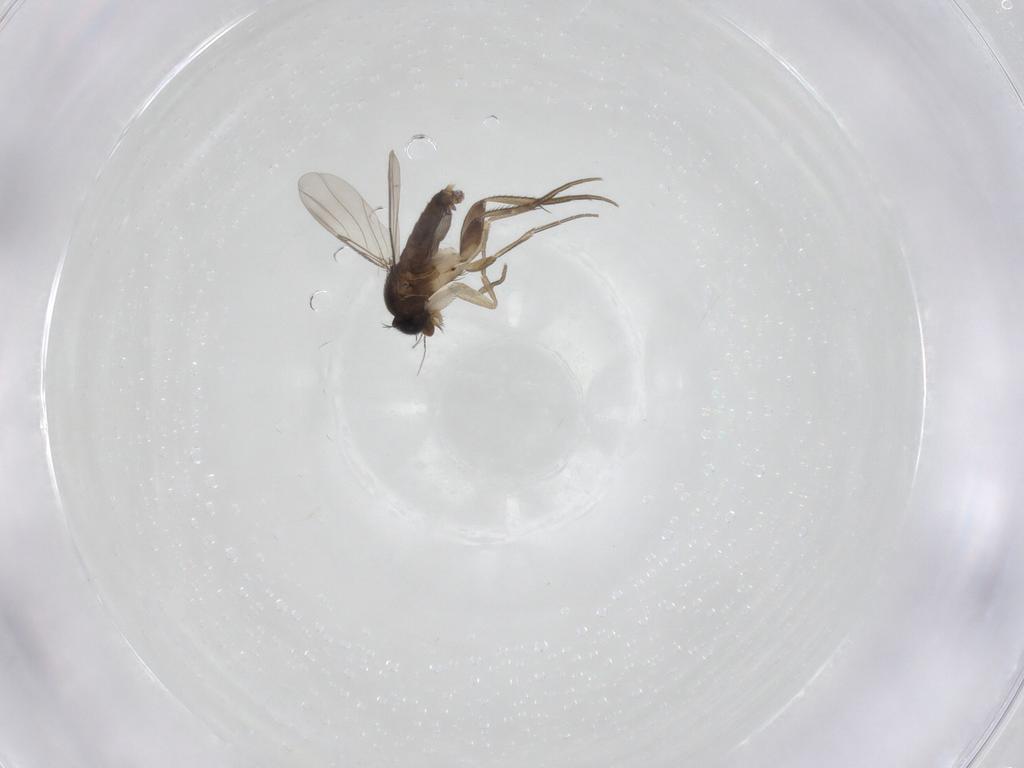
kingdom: Animalia
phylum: Arthropoda
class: Insecta
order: Diptera
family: Phoridae
